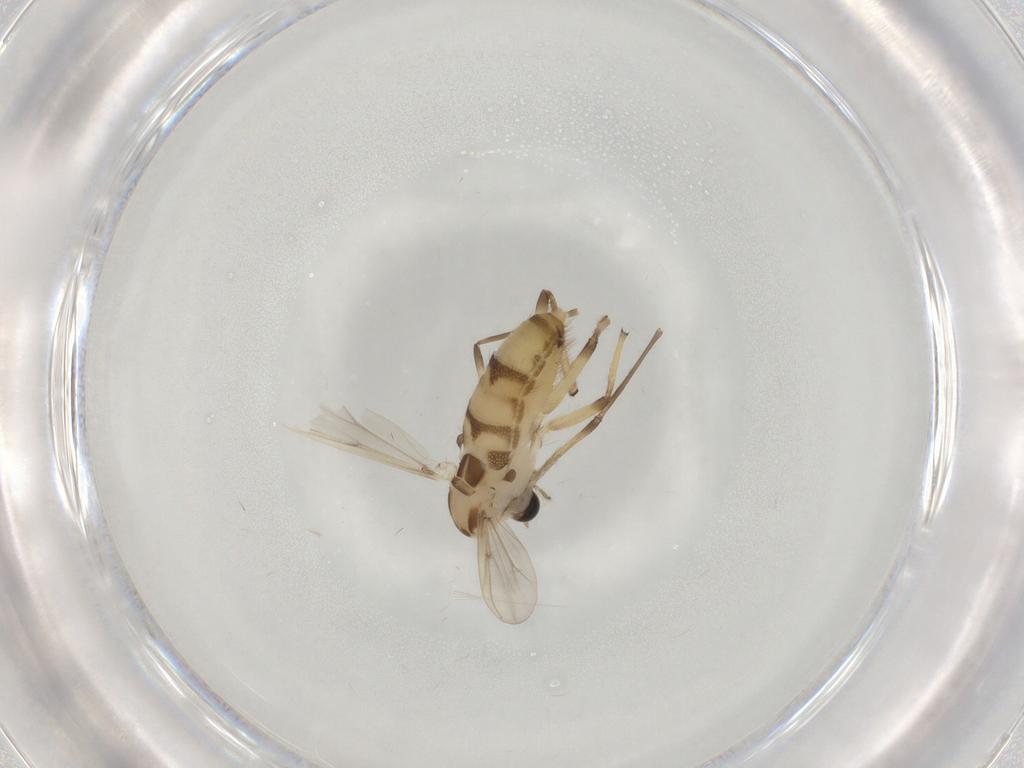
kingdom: Animalia
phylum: Arthropoda
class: Insecta
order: Diptera
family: Chironomidae
